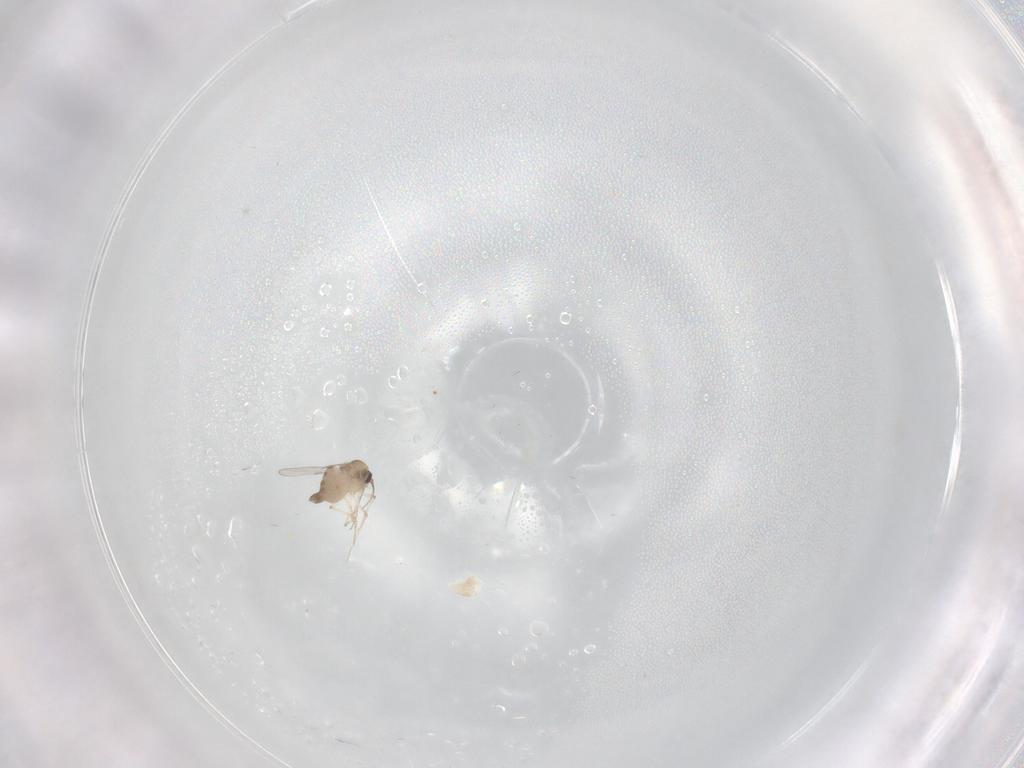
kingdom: Animalia
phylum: Arthropoda
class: Insecta
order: Diptera
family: Ceratopogonidae
